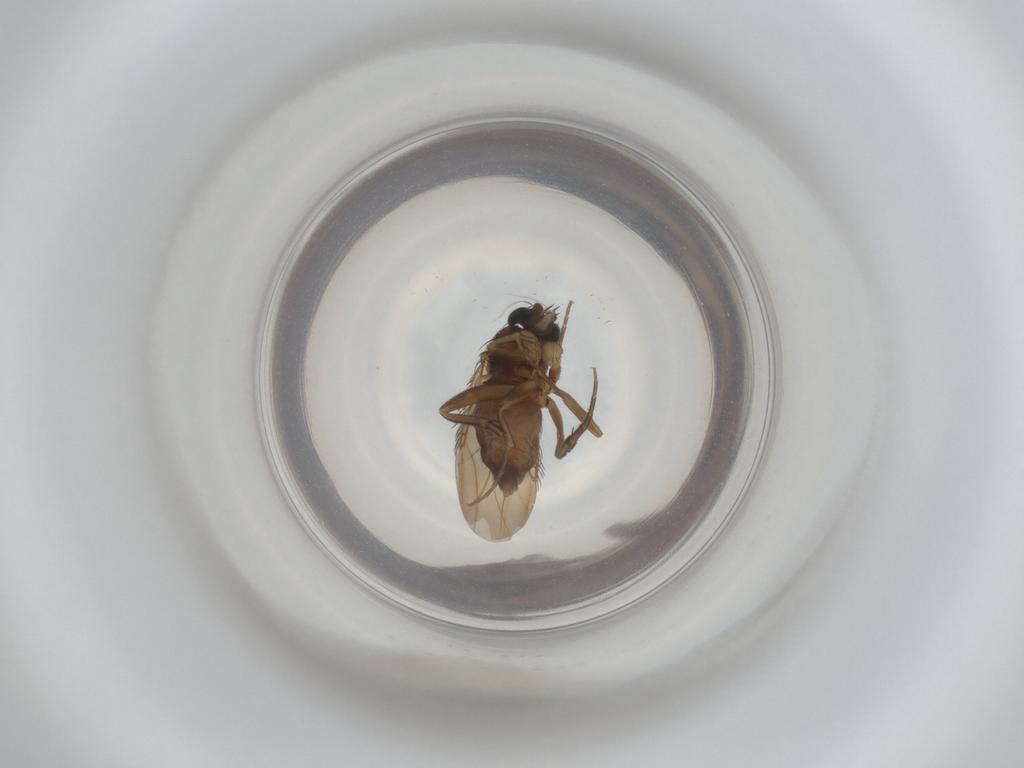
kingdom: Animalia
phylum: Arthropoda
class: Insecta
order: Diptera
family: Phoridae
